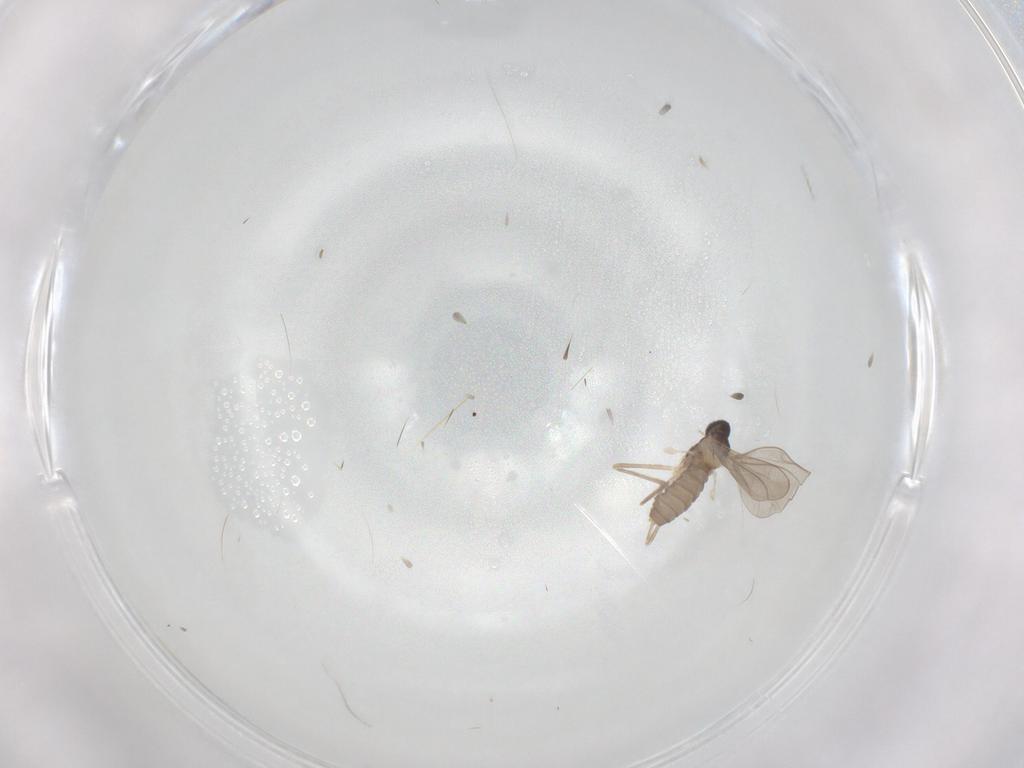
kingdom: Animalia
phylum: Arthropoda
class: Insecta
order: Diptera
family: Cecidomyiidae
